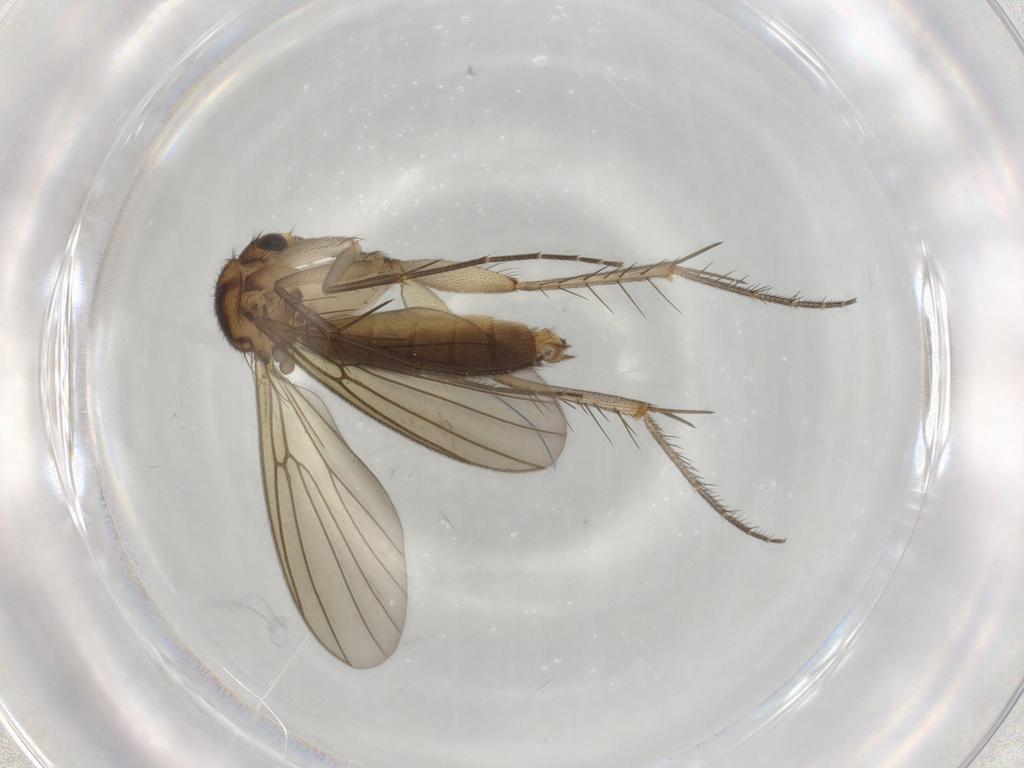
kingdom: Animalia
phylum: Arthropoda
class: Insecta
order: Diptera
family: Mycetophilidae
